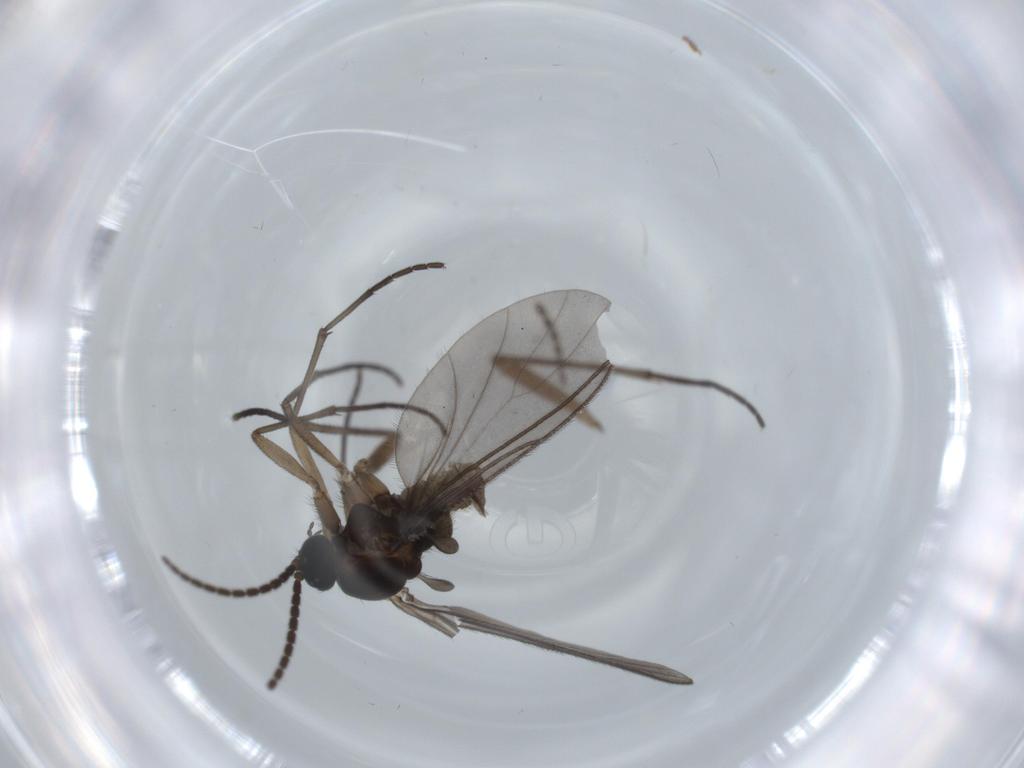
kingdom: Animalia
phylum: Arthropoda
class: Insecta
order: Diptera
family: Sciaridae
